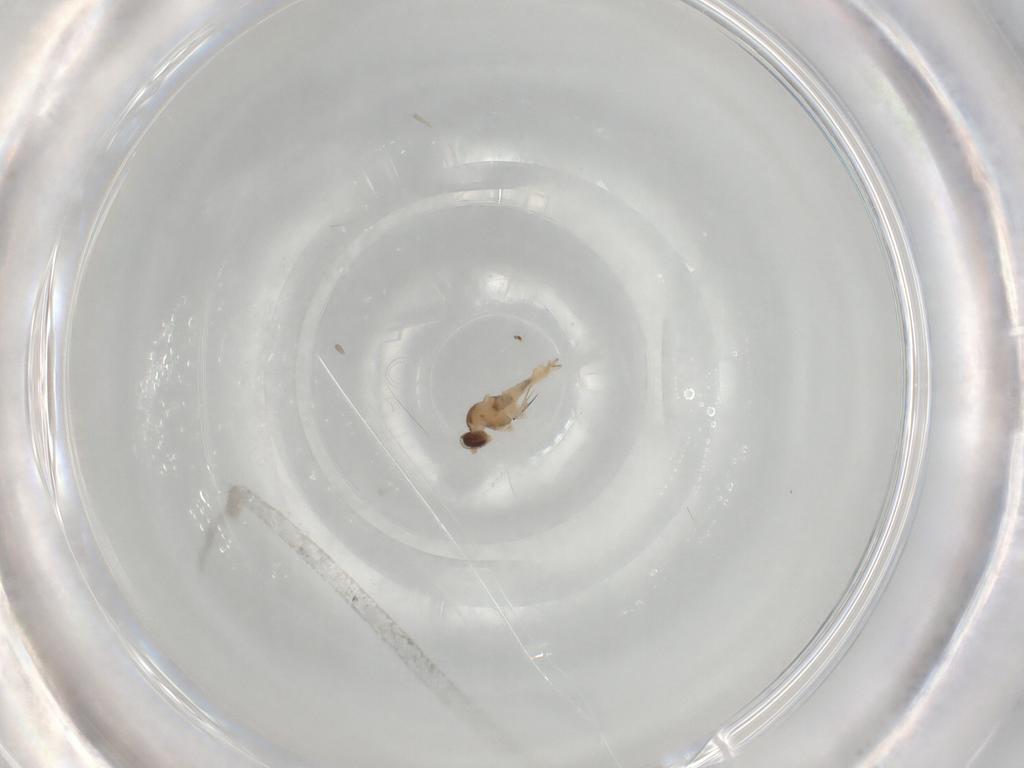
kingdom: Animalia
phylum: Arthropoda
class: Insecta
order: Diptera
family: Cecidomyiidae
